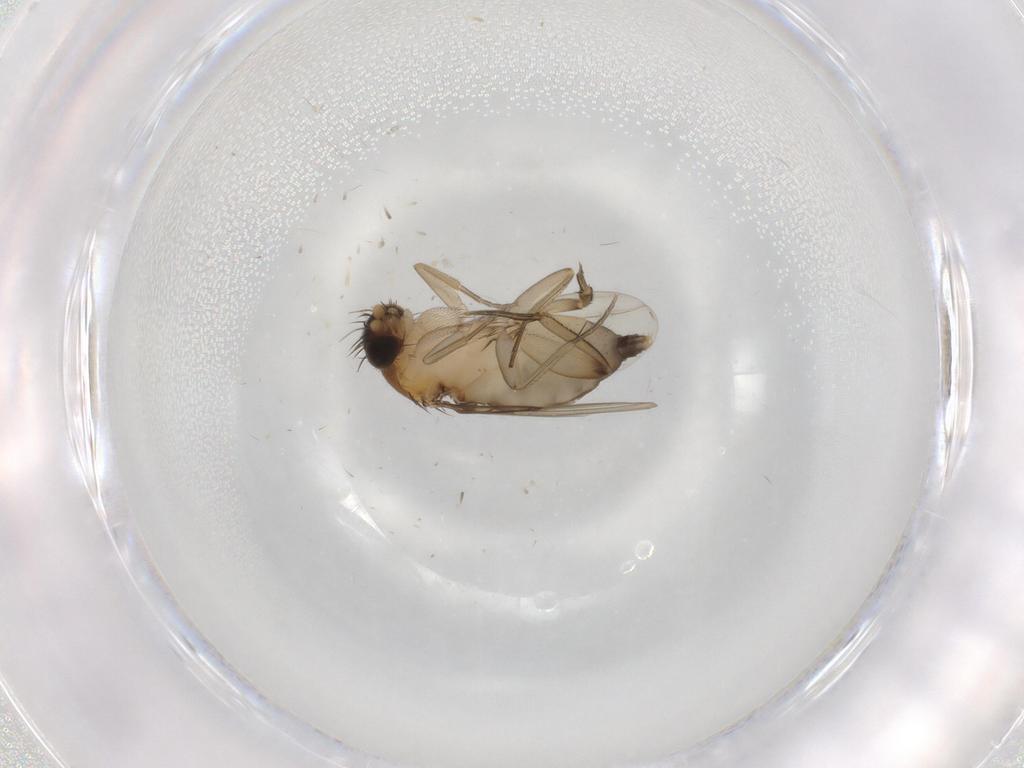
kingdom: Animalia
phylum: Arthropoda
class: Insecta
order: Diptera
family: Phoridae
